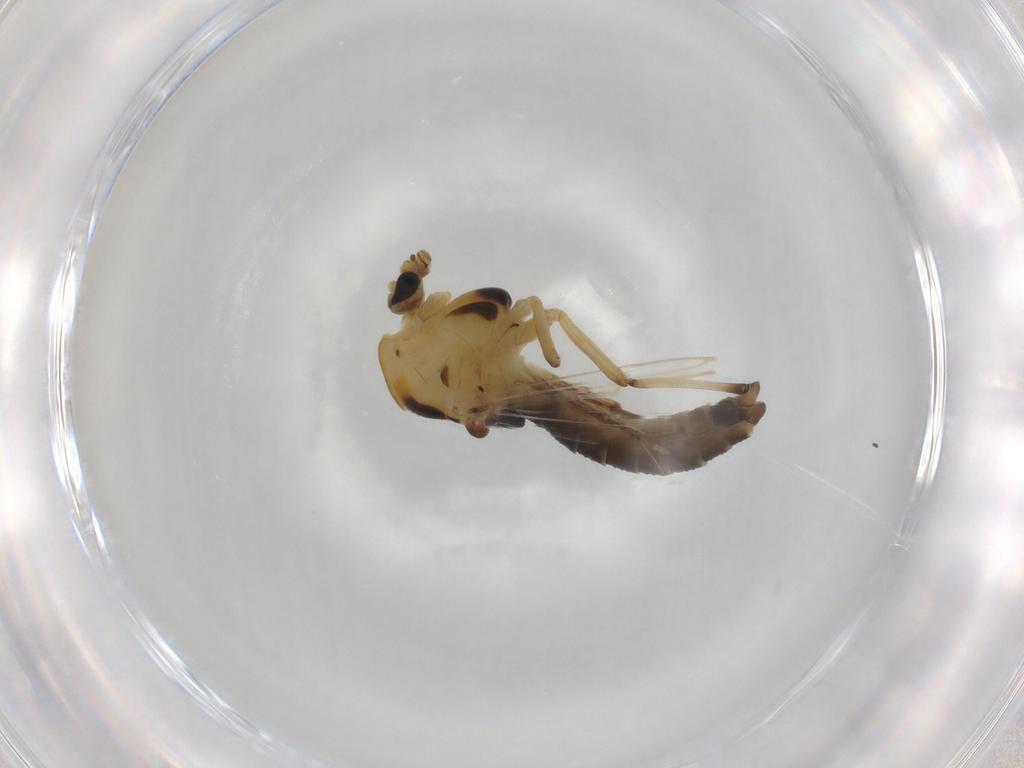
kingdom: Animalia
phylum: Arthropoda
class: Insecta
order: Diptera
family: Chironomidae
